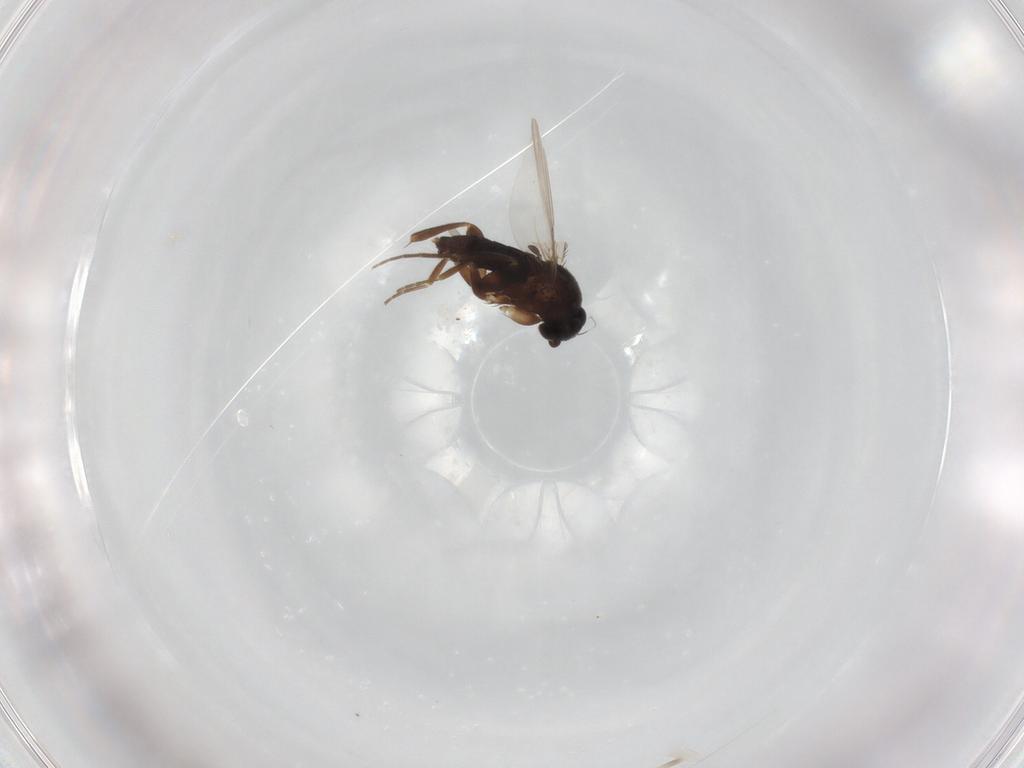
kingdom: Animalia
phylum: Arthropoda
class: Insecta
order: Diptera
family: Phoridae
